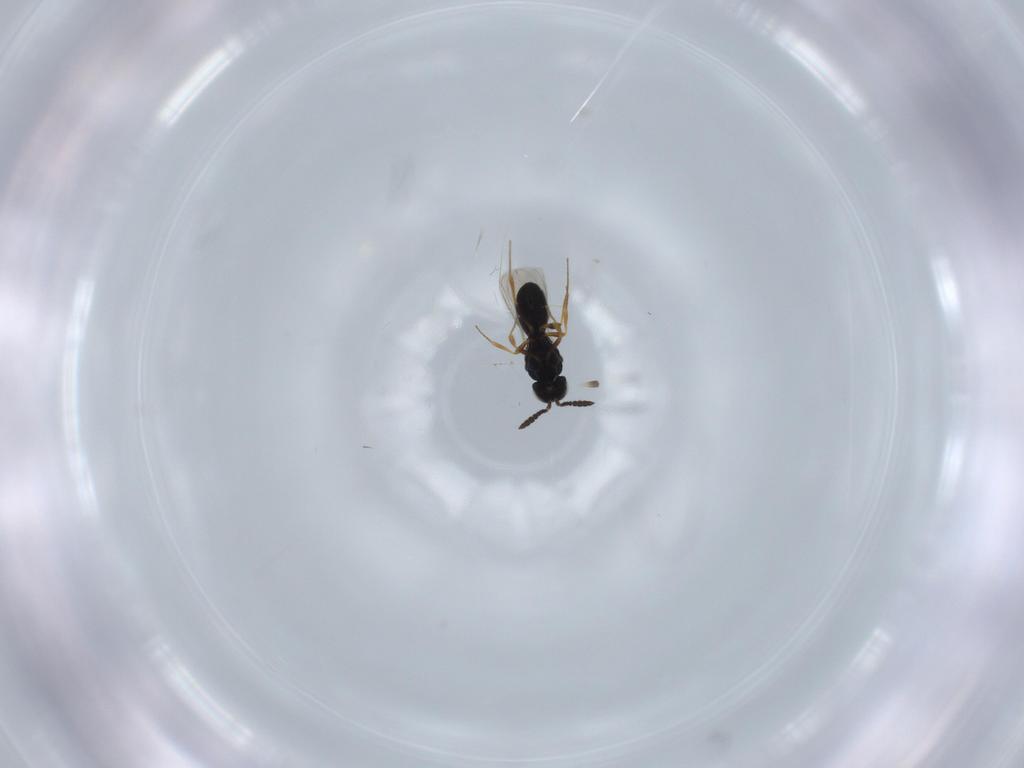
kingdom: Animalia
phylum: Arthropoda
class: Insecta
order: Hymenoptera
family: Scelionidae
